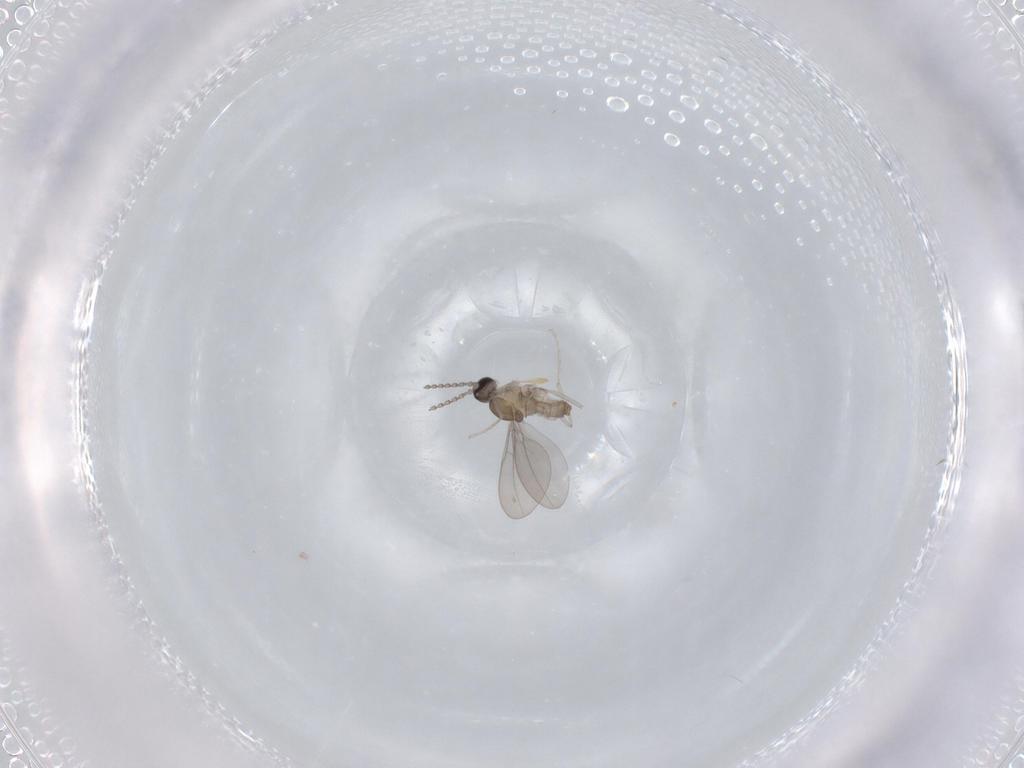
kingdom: Animalia
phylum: Arthropoda
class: Insecta
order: Diptera
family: Cecidomyiidae
